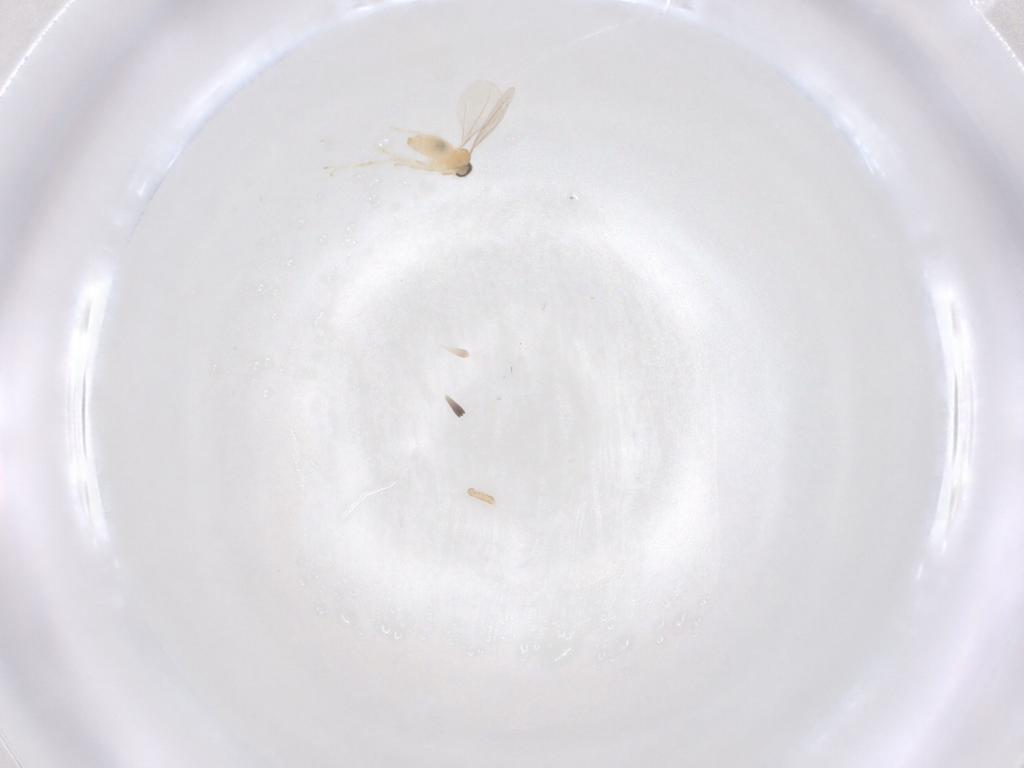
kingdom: Animalia
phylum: Arthropoda
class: Insecta
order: Diptera
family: Cecidomyiidae
